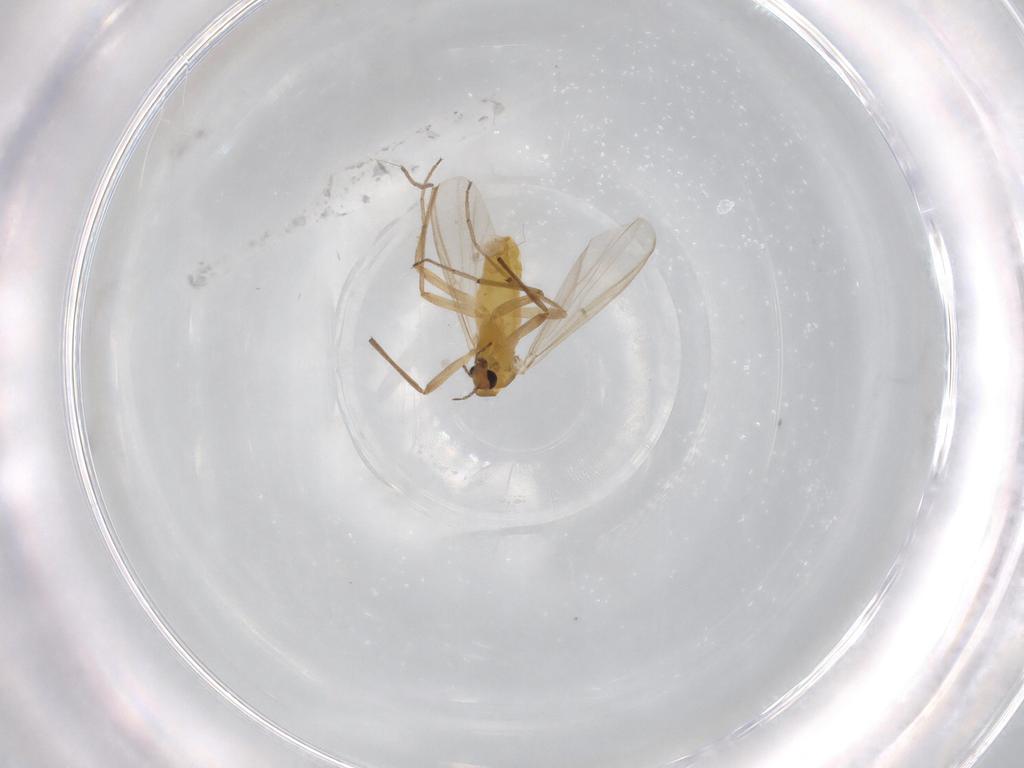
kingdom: Animalia
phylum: Arthropoda
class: Insecta
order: Diptera
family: Chironomidae
